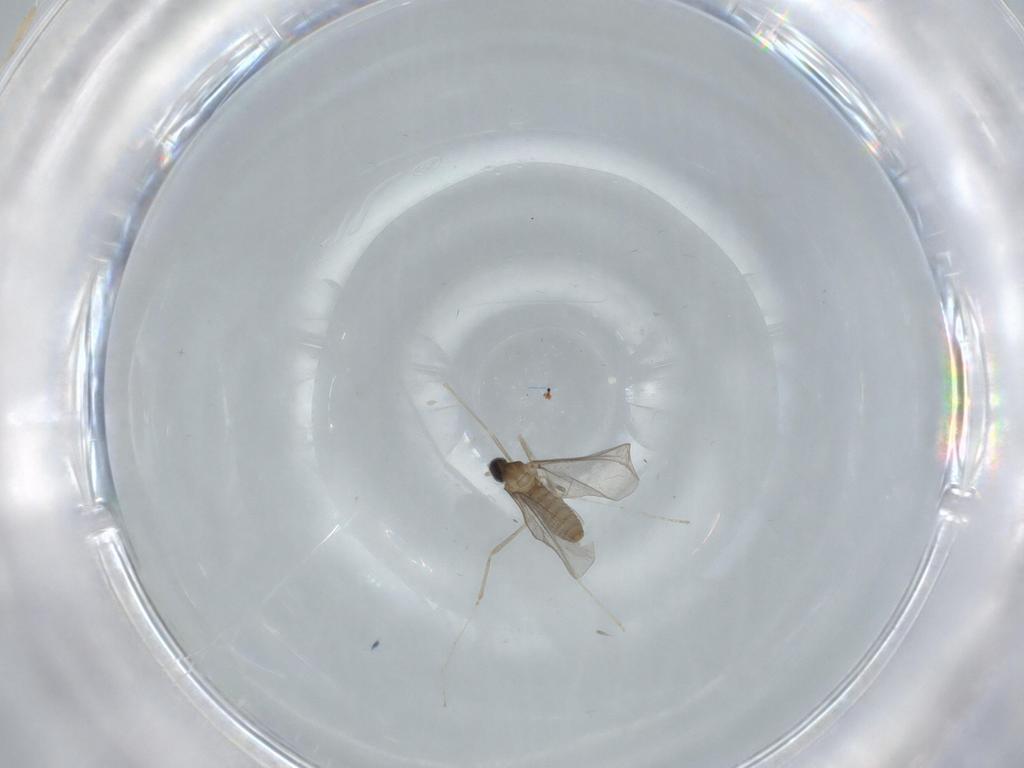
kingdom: Animalia
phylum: Arthropoda
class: Insecta
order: Diptera
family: Cecidomyiidae
